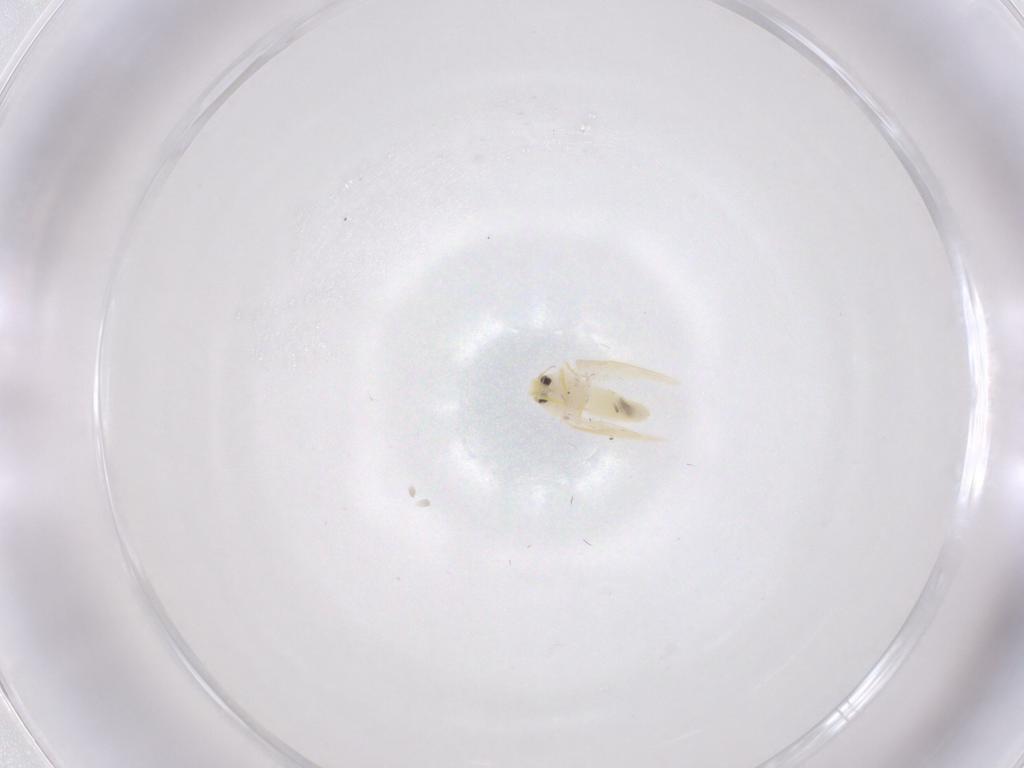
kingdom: Animalia
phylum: Arthropoda
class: Insecta
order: Hemiptera
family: Aleyrodidae
